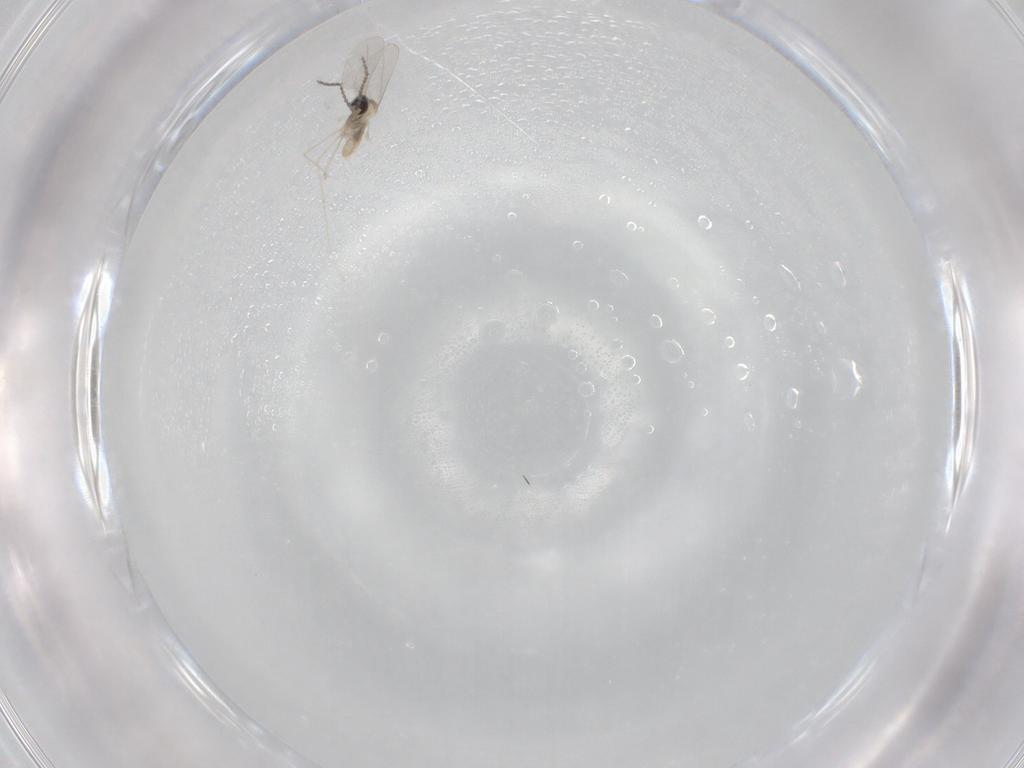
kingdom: Animalia
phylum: Arthropoda
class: Insecta
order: Diptera
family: Cecidomyiidae
